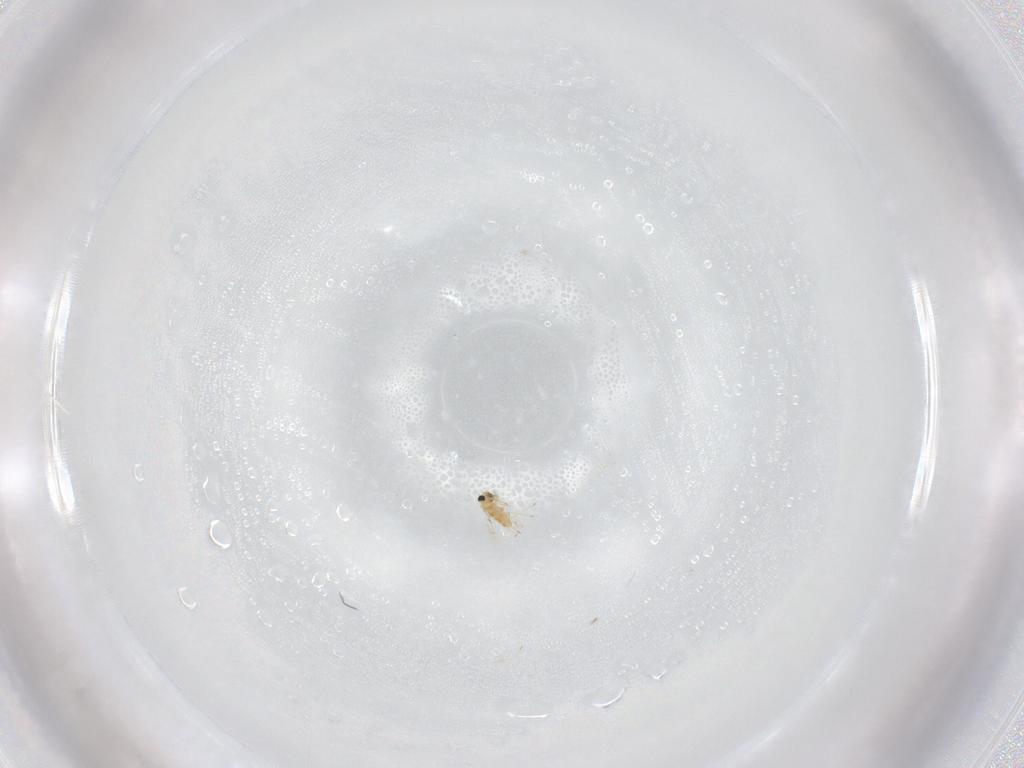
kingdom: Animalia
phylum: Arthropoda
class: Insecta
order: Hymenoptera
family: Trichogrammatidae
